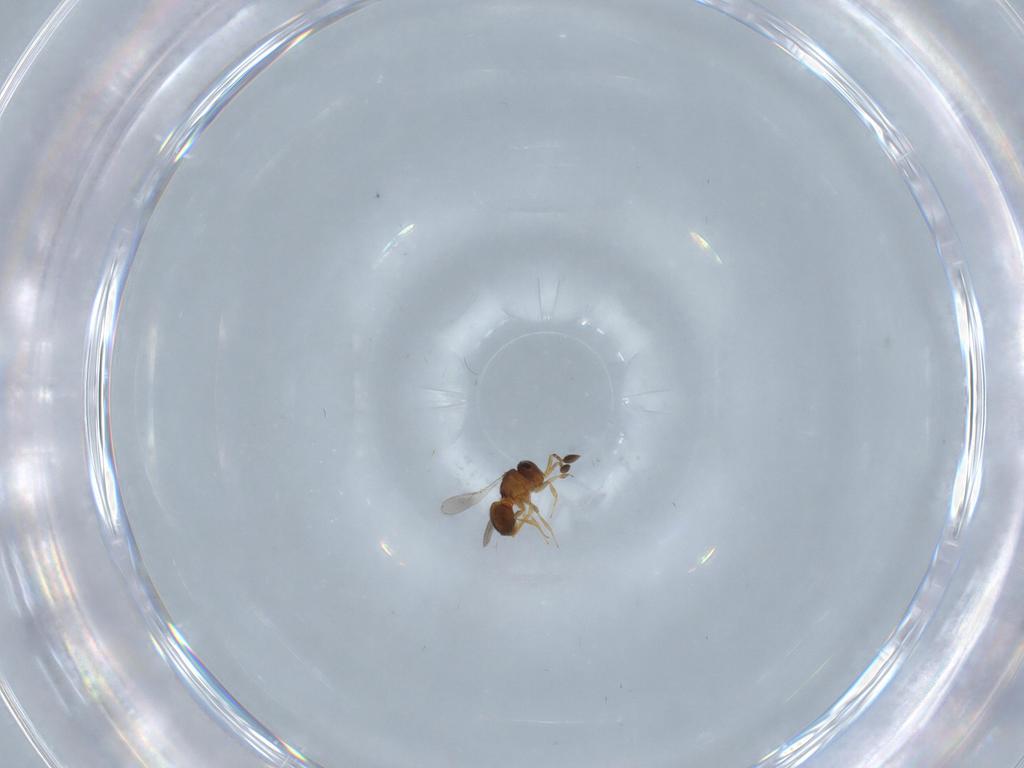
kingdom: Animalia
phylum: Arthropoda
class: Insecta
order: Hymenoptera
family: Scelionidae
